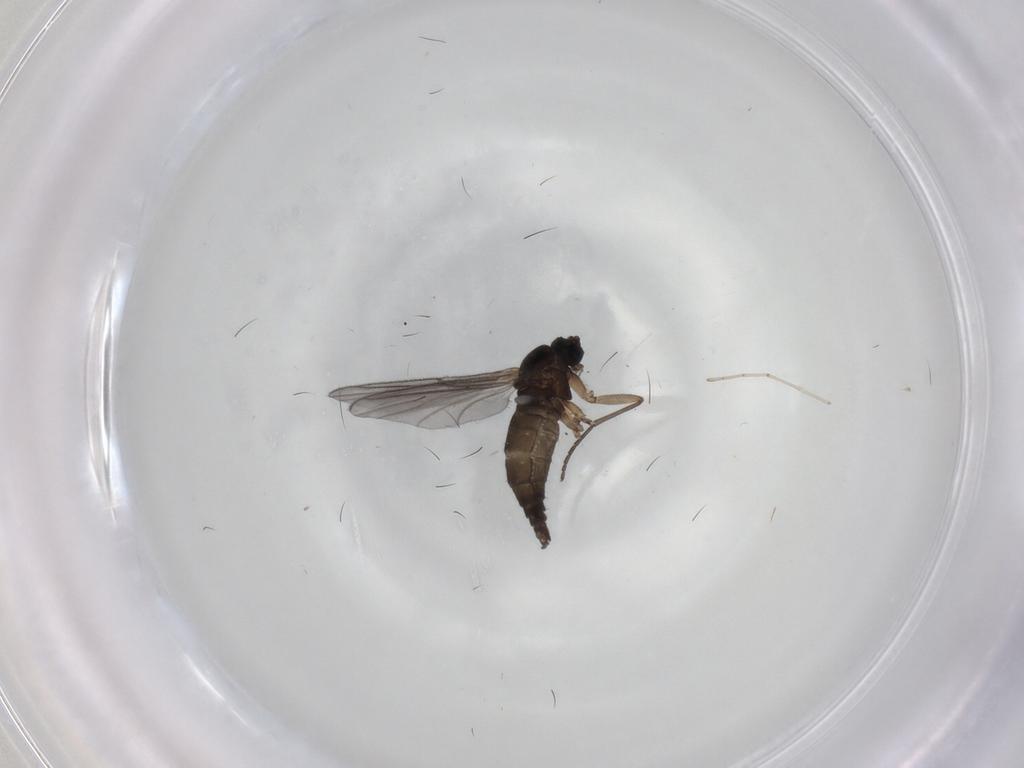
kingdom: Animalia
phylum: Arthropoda
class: Insecta
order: Diptera
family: Sciaridae
